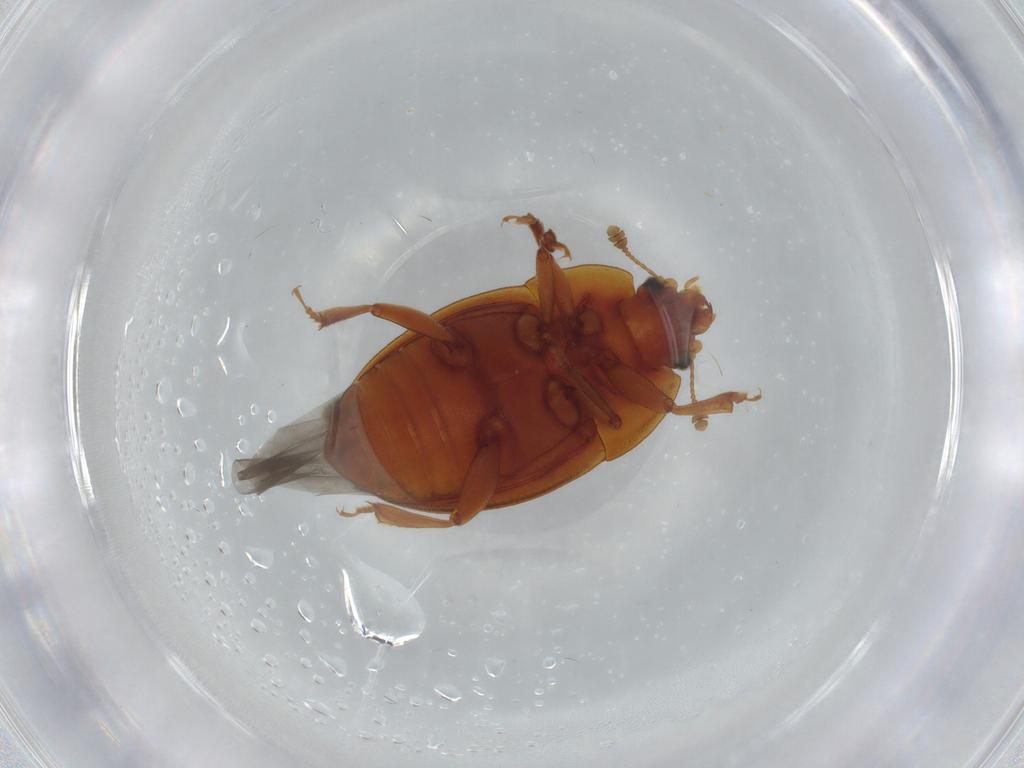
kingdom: Animalia
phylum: Arthropoda
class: Insecta
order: Coleoptera
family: Nitidulidae
